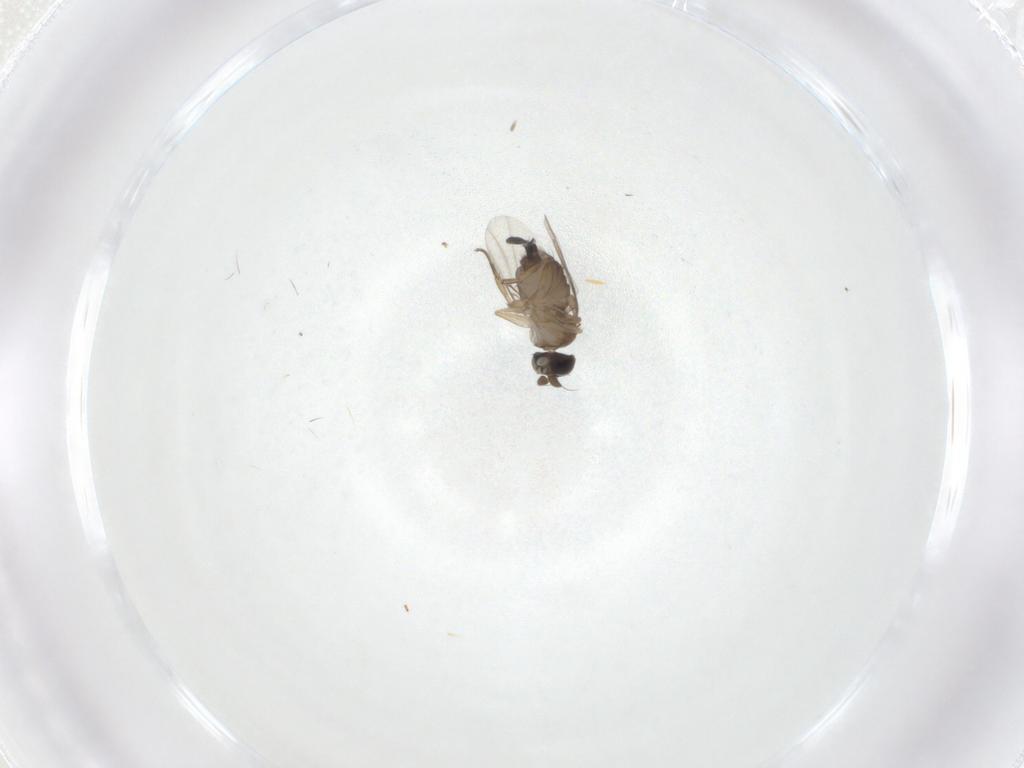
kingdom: Animalia
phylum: Arthropoda
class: Insecta
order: Diptera
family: Phoridae
